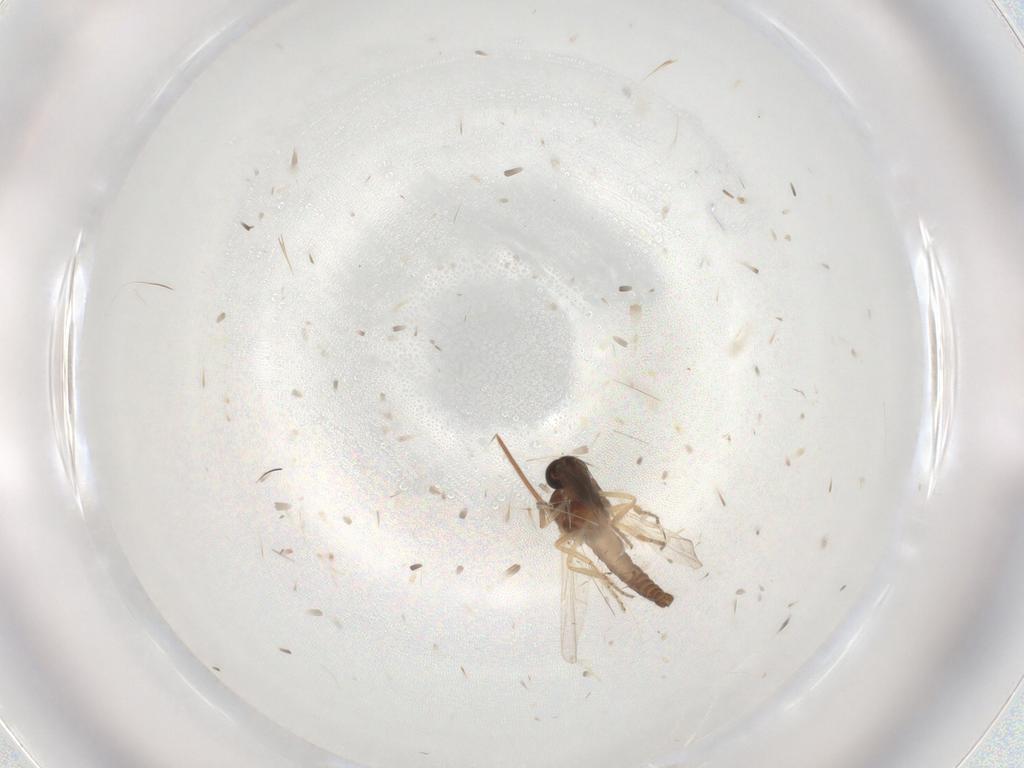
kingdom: Animalia
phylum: Arthropoda
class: Insecta
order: Diptera
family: Ceratopogonidae
